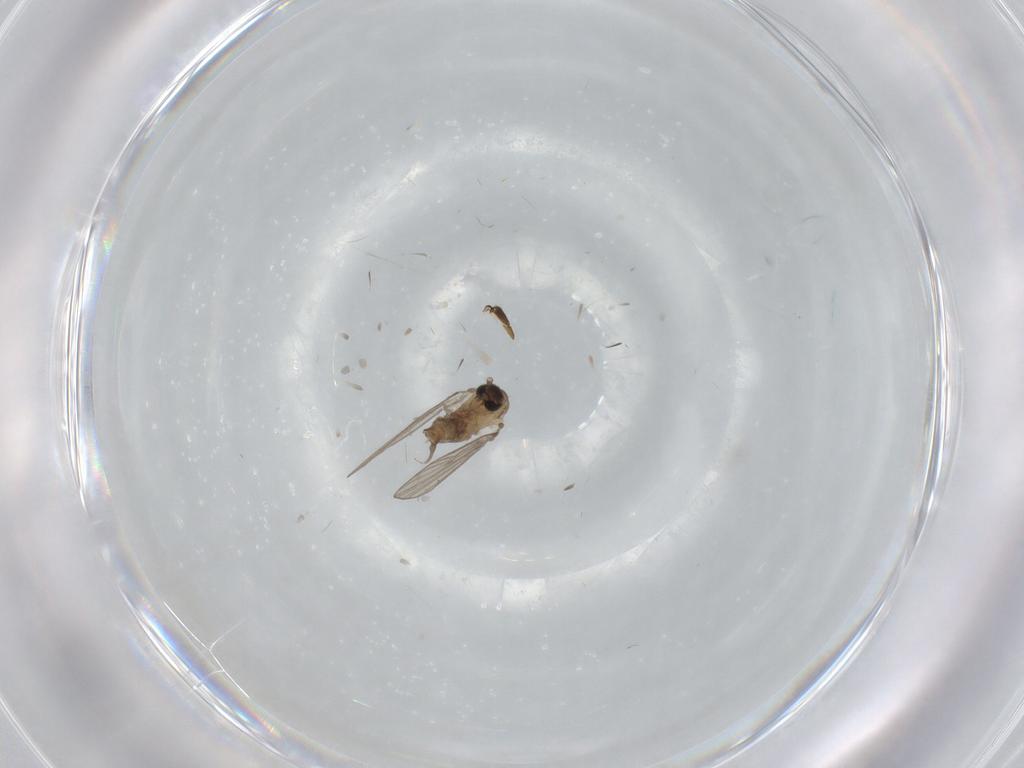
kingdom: Animalia
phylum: Arthropoda
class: Insecta
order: Diptera
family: Psychodidae
